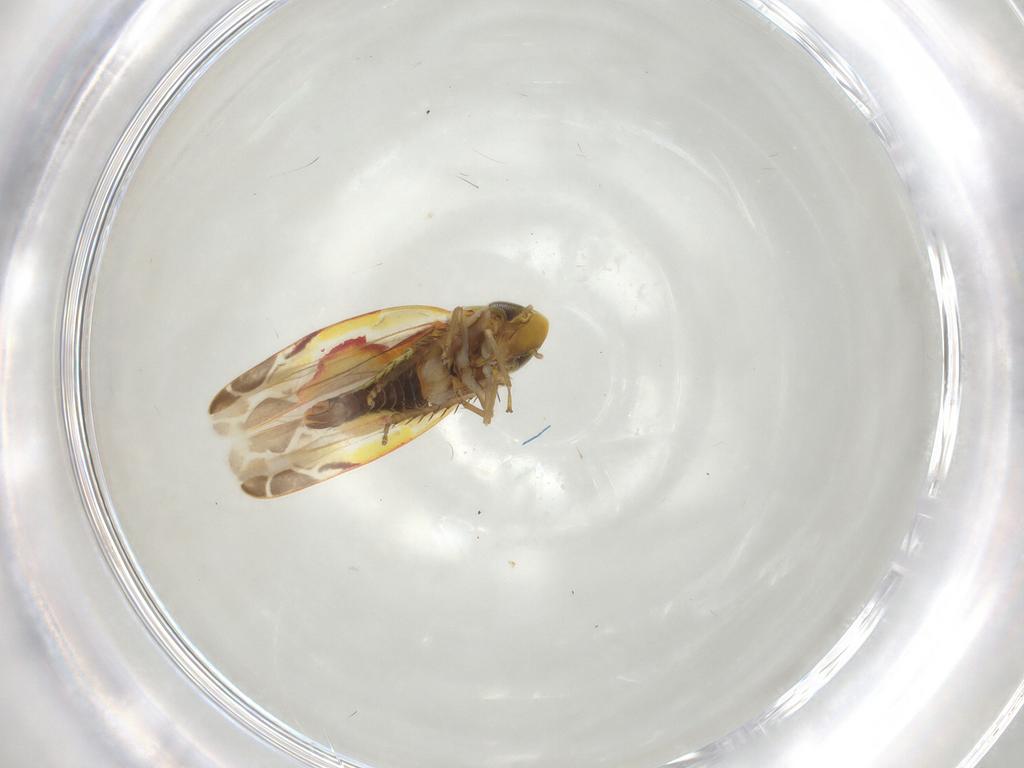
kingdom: Animalia
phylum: Arthropoda
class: Insecta
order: Hemiptera
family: Cicadellidae
